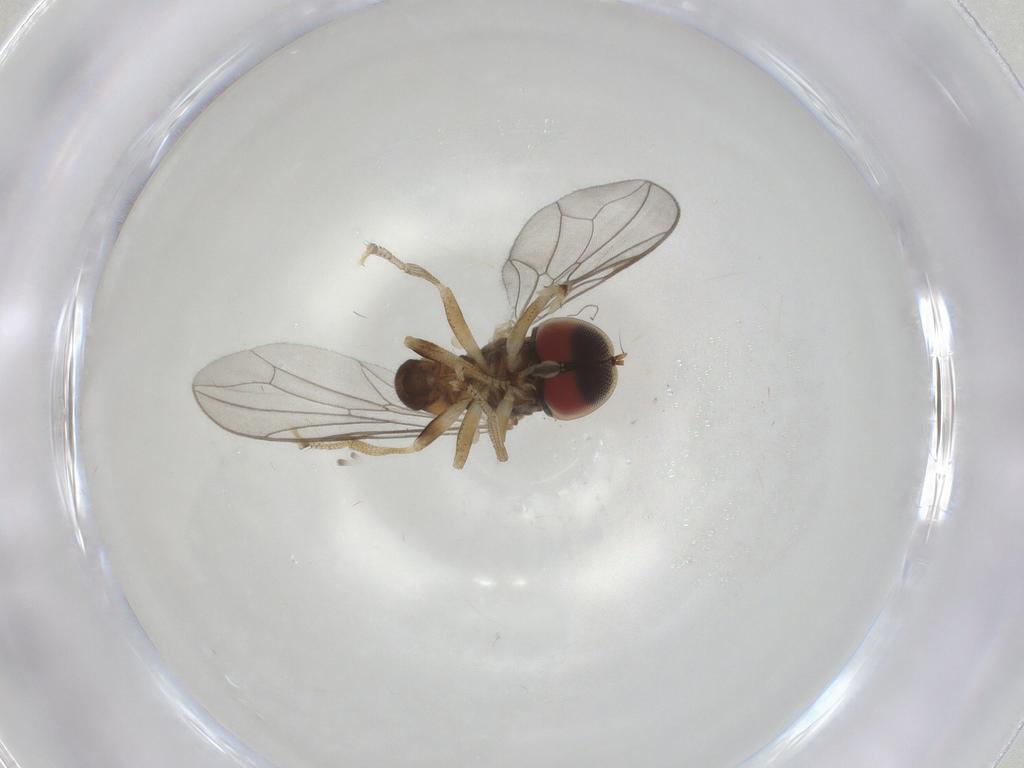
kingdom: Animalia
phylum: Arthropoda
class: Insecta
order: Diptera
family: Pipunculidae
